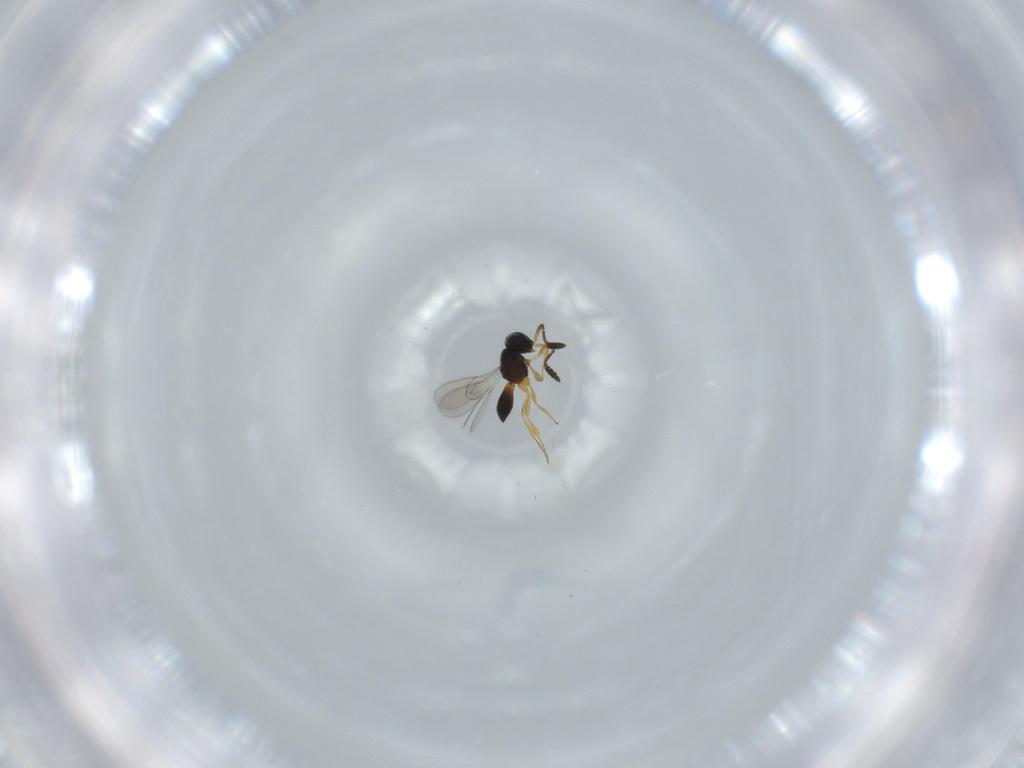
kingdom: Animalia
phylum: Arthropoda
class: Insecta
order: Hymenoptera
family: Scelionidae
